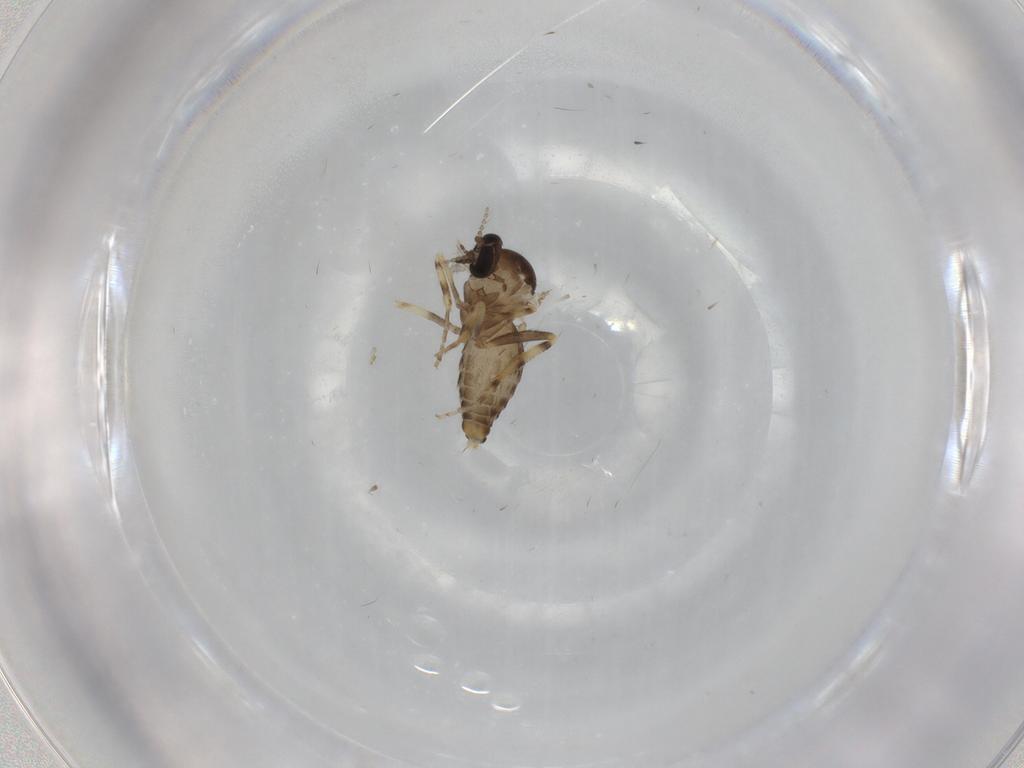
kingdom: Animalia
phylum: Arthropoda
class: Insecta
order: Diptera
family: Ceratopogonidae
